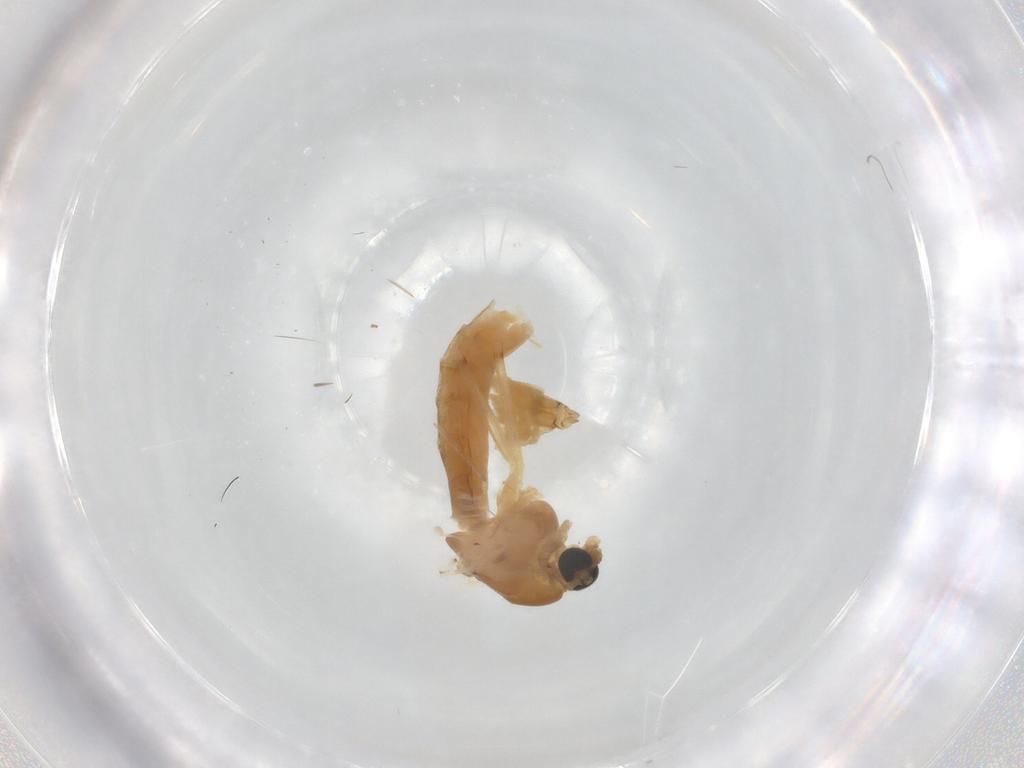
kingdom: Animalia
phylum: Arthropoda
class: Insecta
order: Diptera
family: Chironomidae
